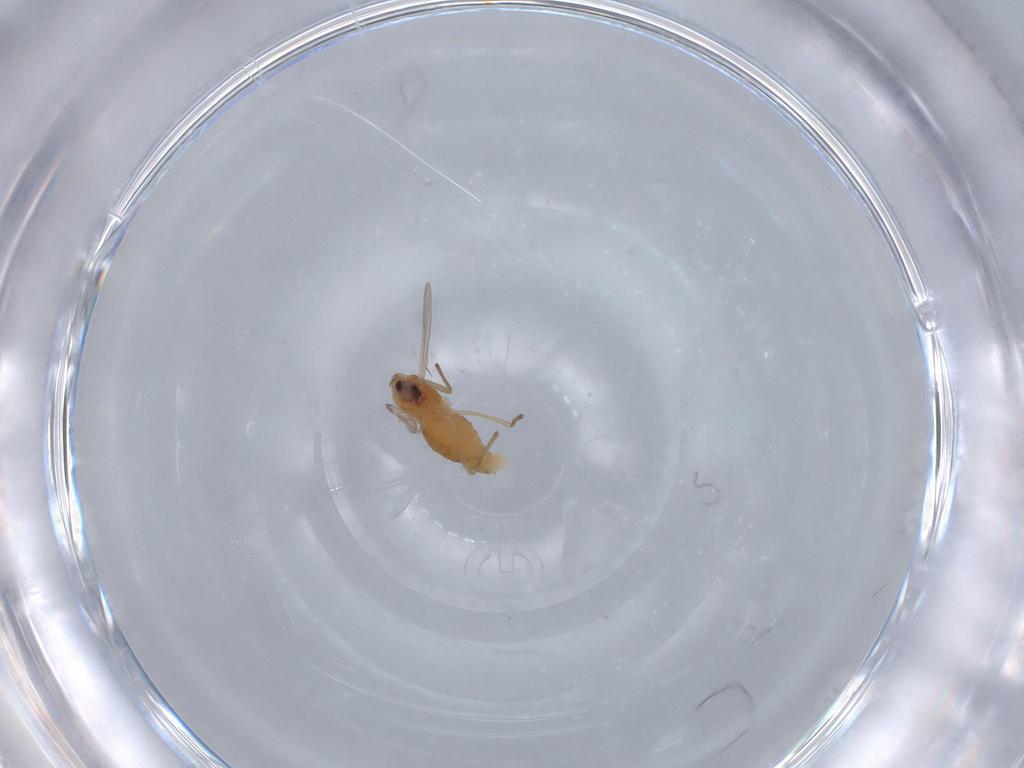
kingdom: Animalia
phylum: Arthropoda
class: Insecta
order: Diptera
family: Chironomidae
